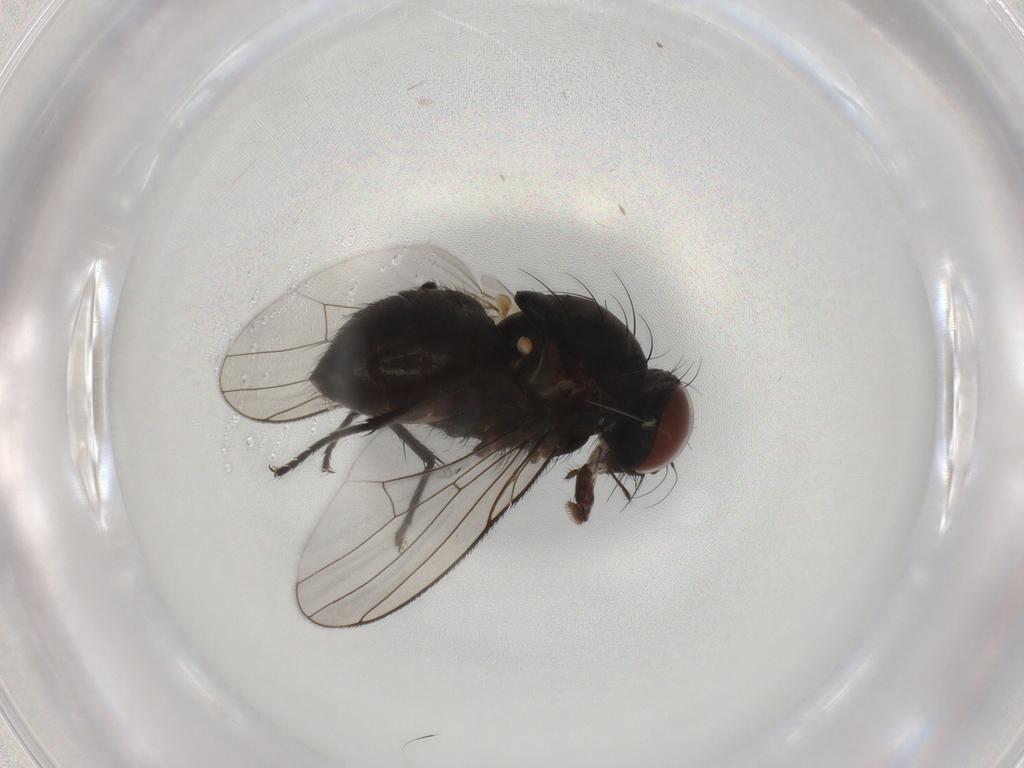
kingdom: Animalia
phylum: Arthropoda
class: Insecta
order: Diptera
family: Muscidae
